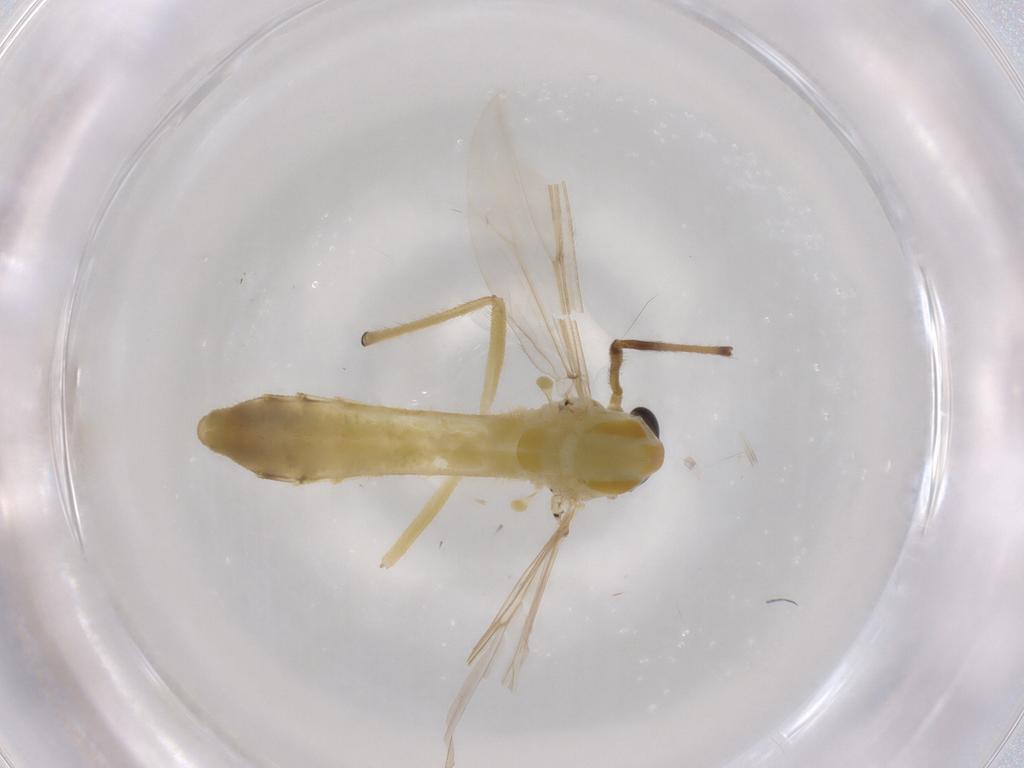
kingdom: Animalia
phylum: Arthropoda
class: Insecta
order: Diptera
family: Chironomidae
